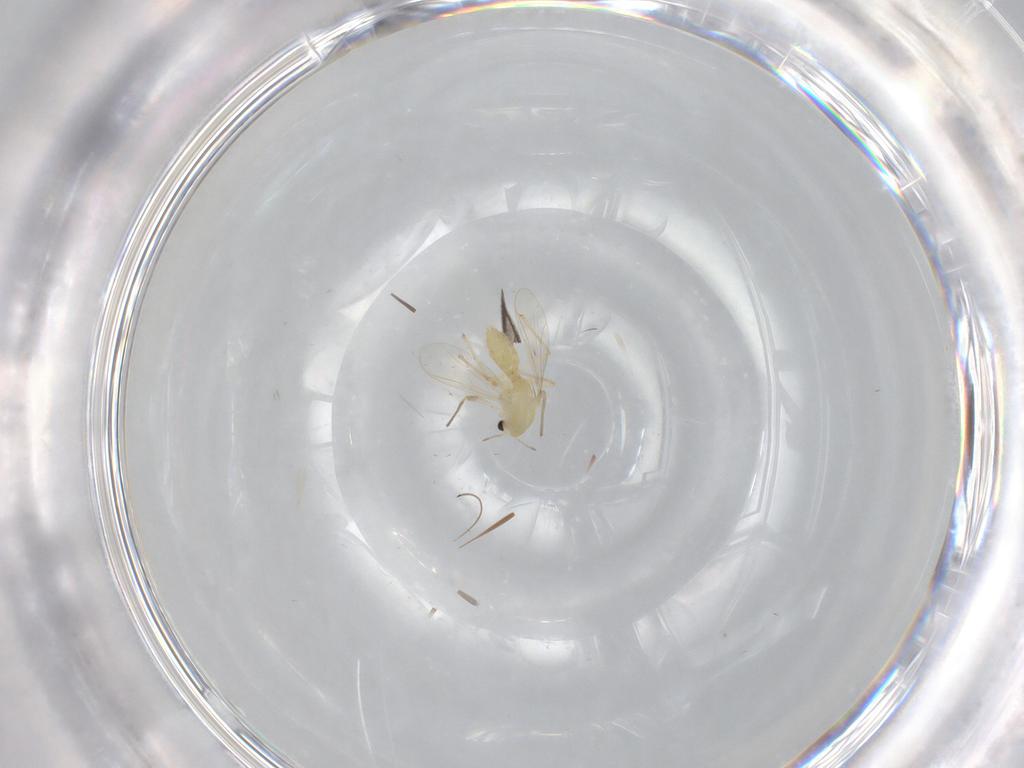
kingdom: Animalia
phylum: Arthropoda
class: Insecta
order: Diptera
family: Chironomidae
